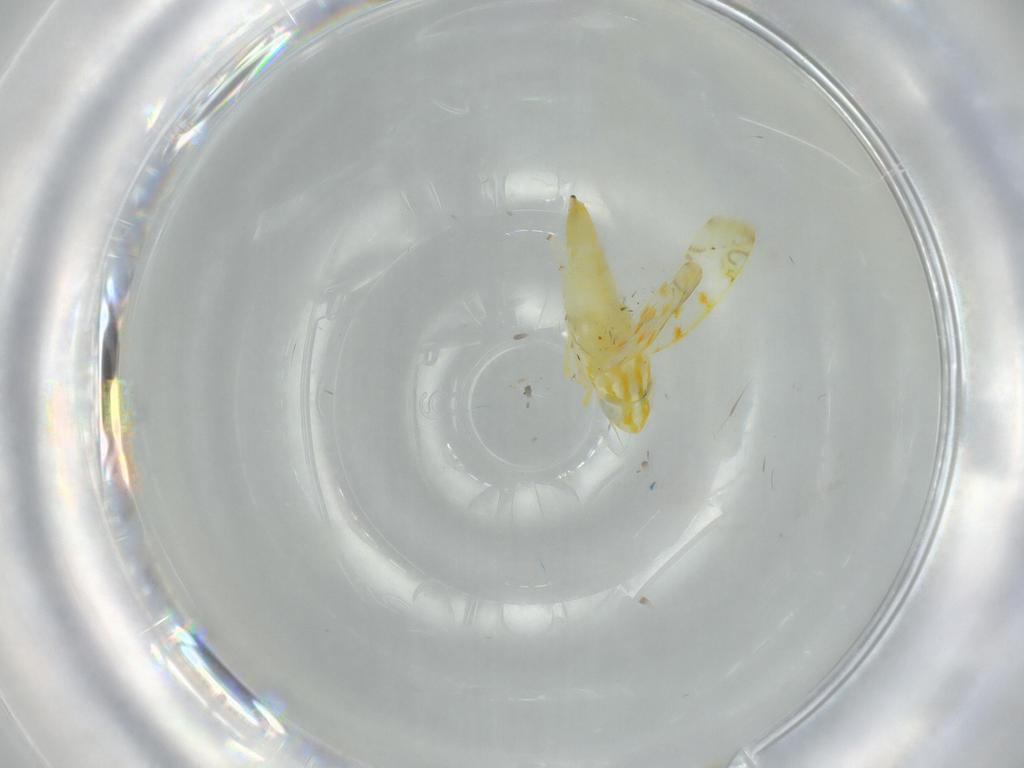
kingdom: Animalia
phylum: Arthropoda
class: Insecta
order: Hemiptera
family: Cicadellidae
